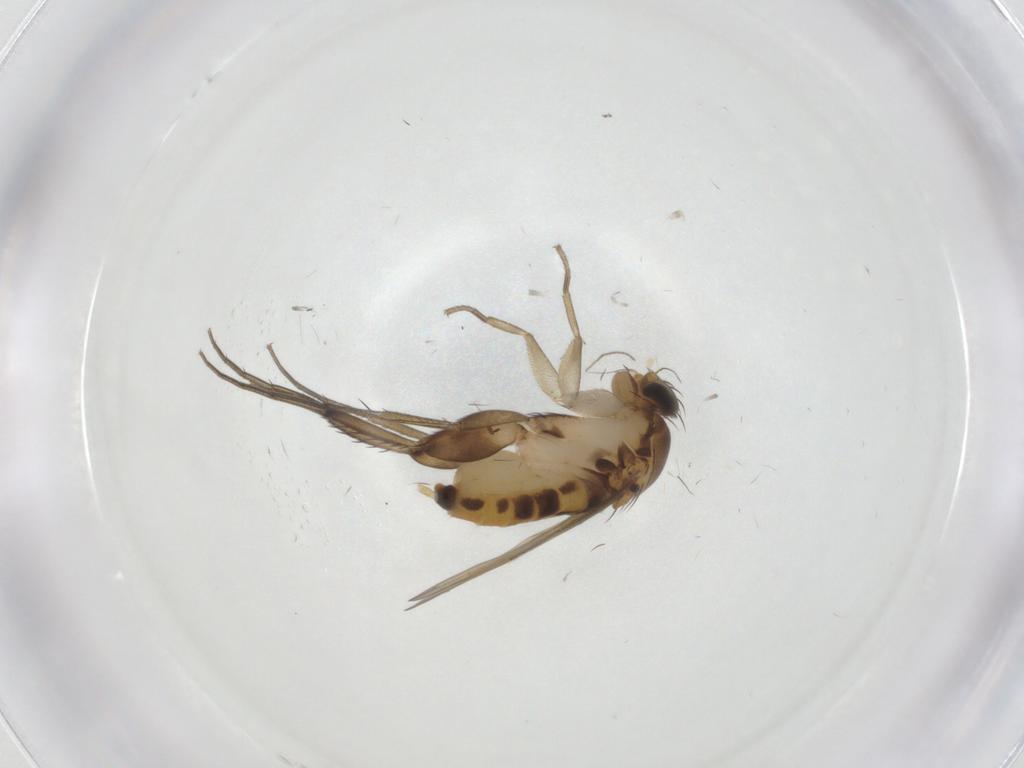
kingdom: Animalia
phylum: Arthropoda
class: Insecta
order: Diptera
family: Phoridae
